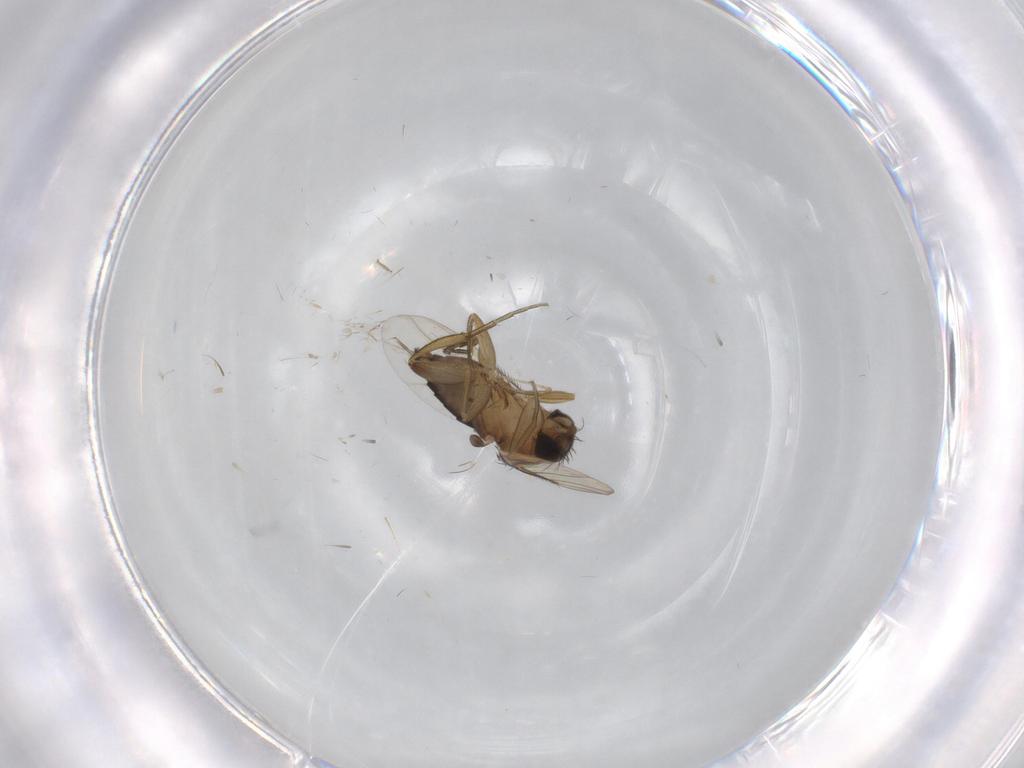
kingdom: Animalia
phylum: Arthropoda
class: Insecta
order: Diptera
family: Cecidomyiidae
